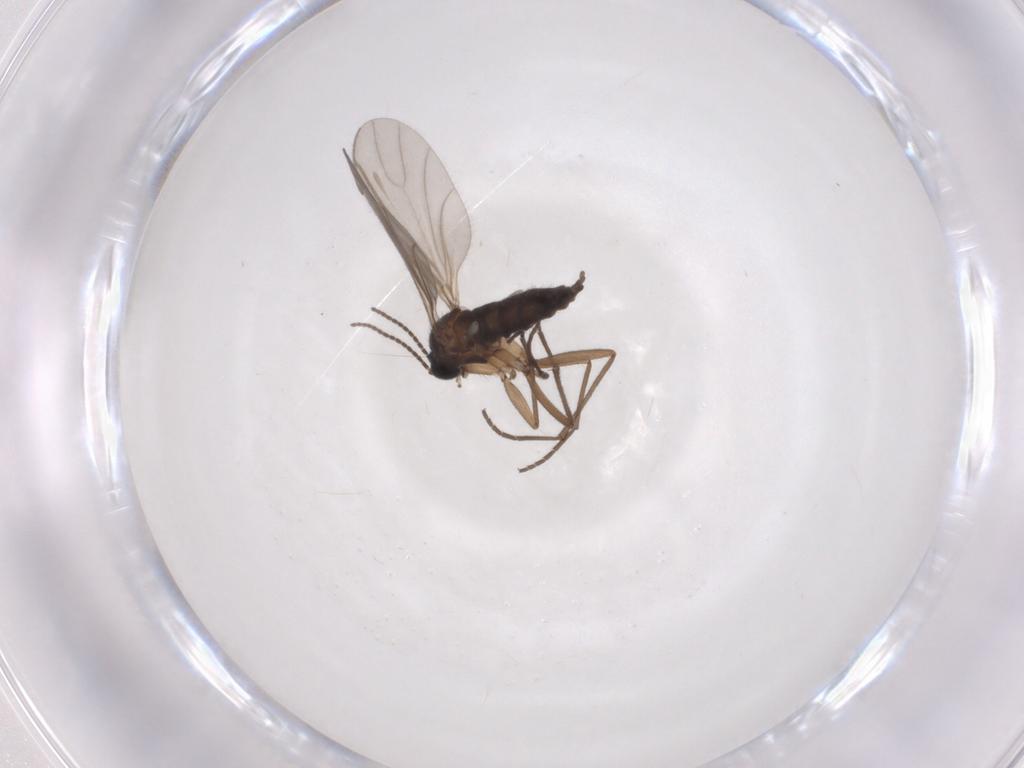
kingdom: Animalia
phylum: Arthropoda
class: Insecta
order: Diptera
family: Sciaridae
